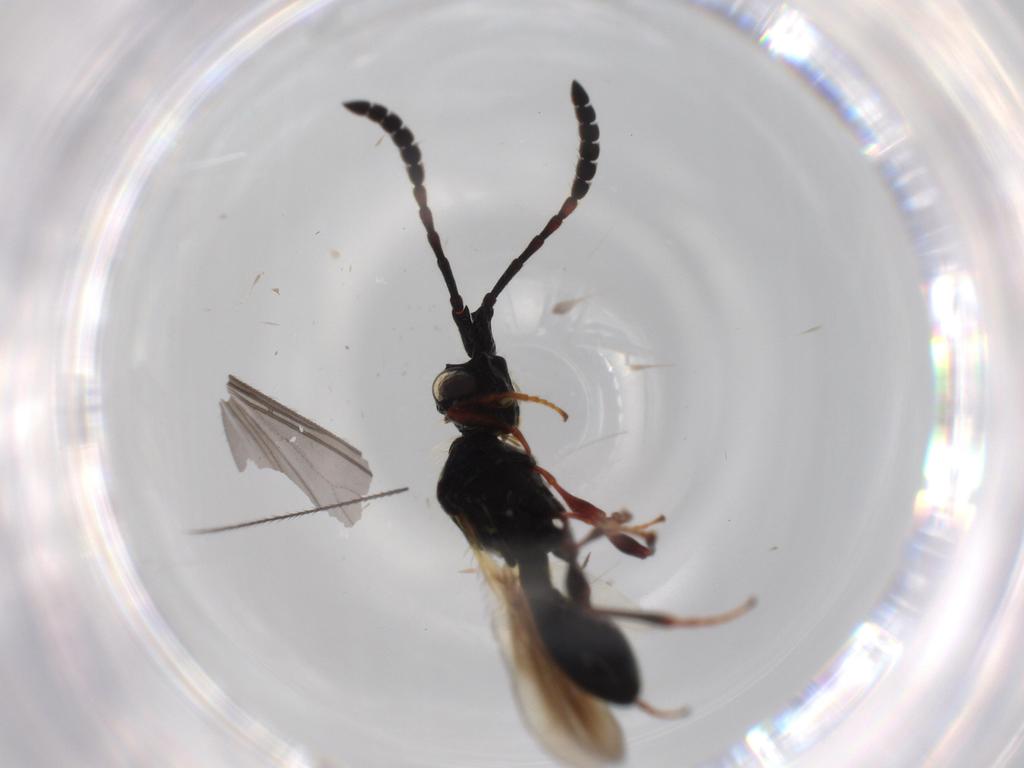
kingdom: Animalia
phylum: Arthropoda
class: Insecta
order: Hymenoptera
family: Diapriidae
